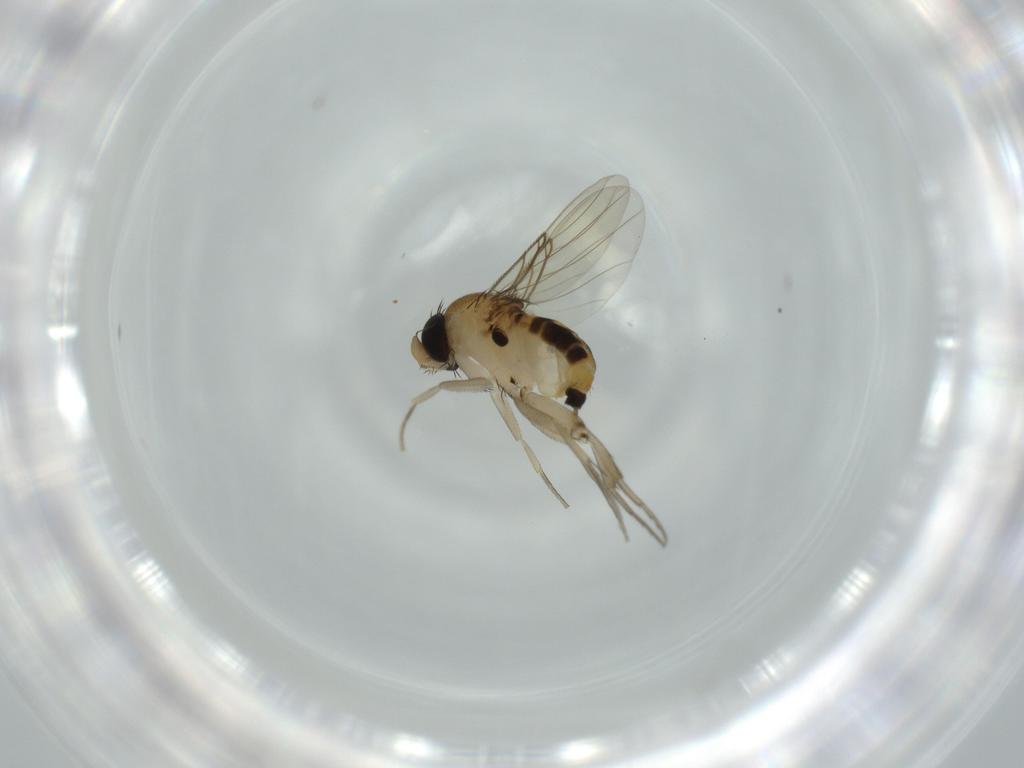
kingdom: Animalia
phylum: Arthropoda
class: Insecta
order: Diptera
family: Phoridae
